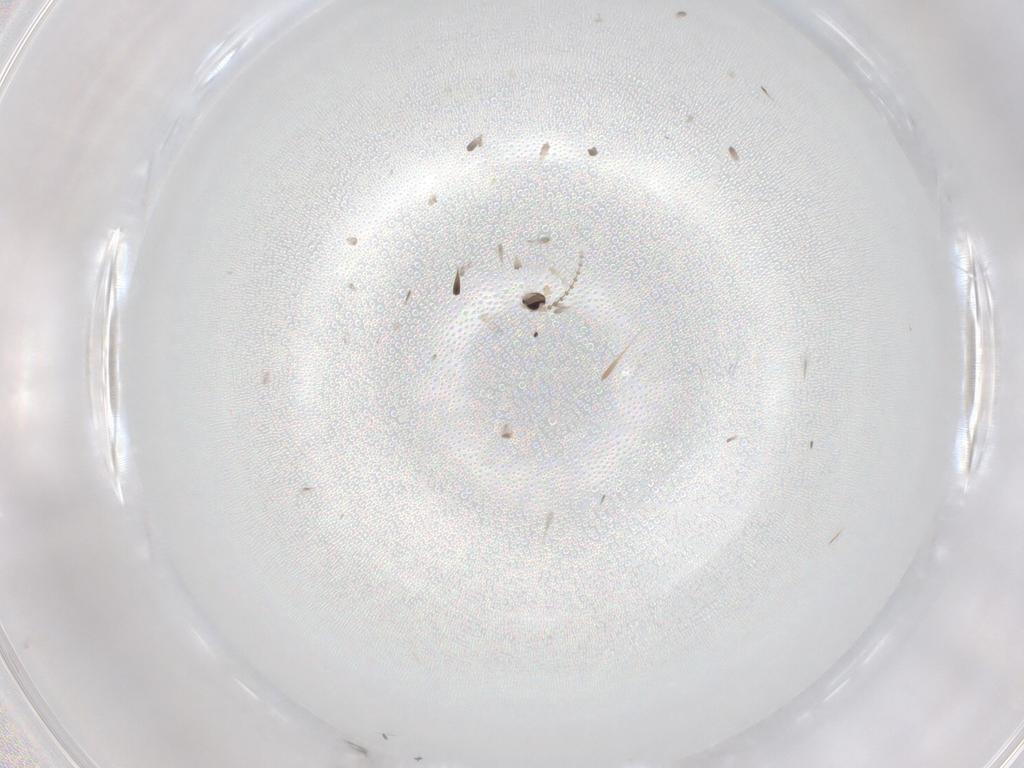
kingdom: Animalia
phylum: Arthropoda
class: Insecta
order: Diptera
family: Cecidomyiidae
